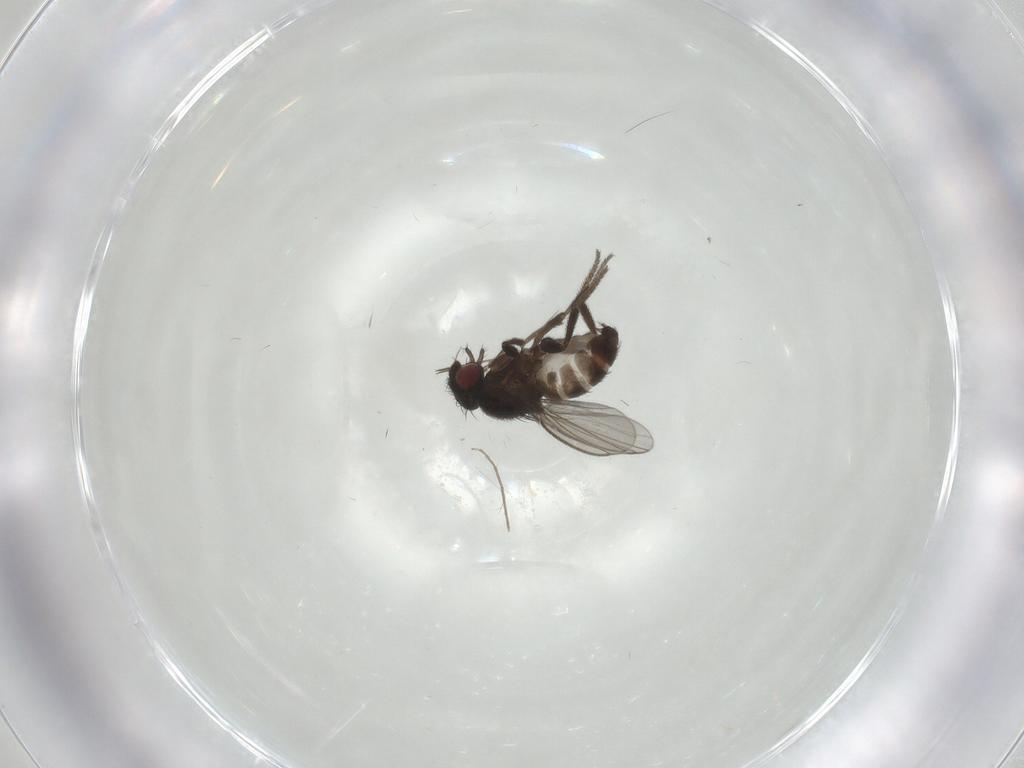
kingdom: Animalia
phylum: Arthropoda
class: Insecta
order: Diptera
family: Milichiidae
